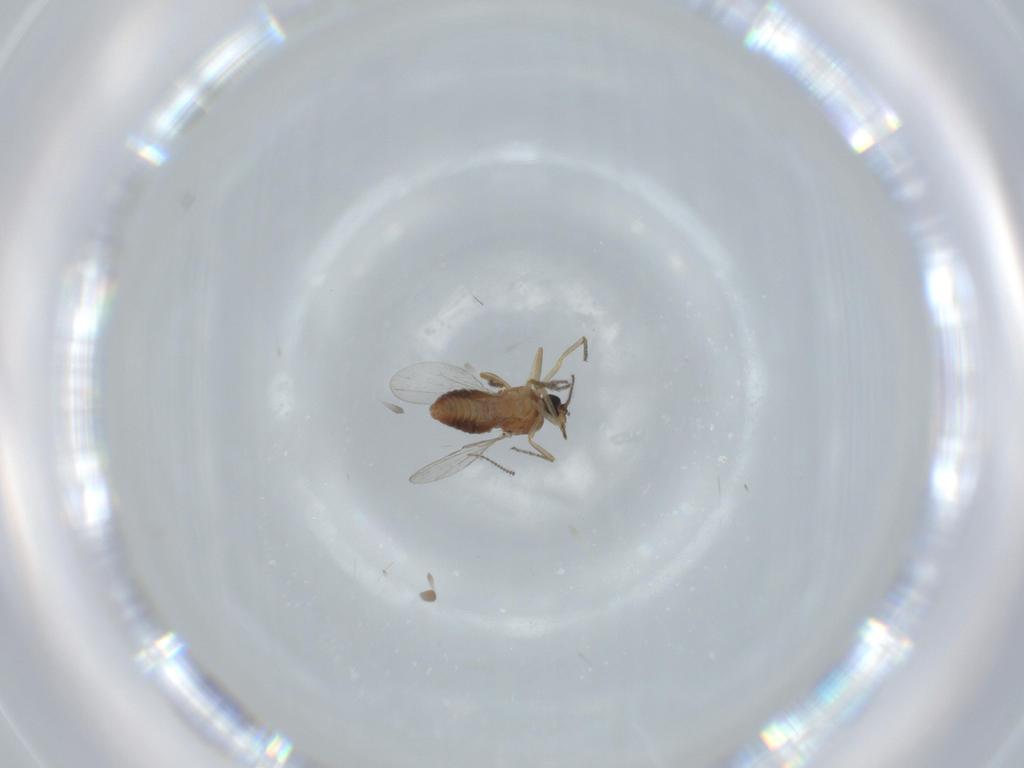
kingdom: Animalia
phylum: Arthropoda
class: Insecta
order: Diptera
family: Ceratopogonidae
